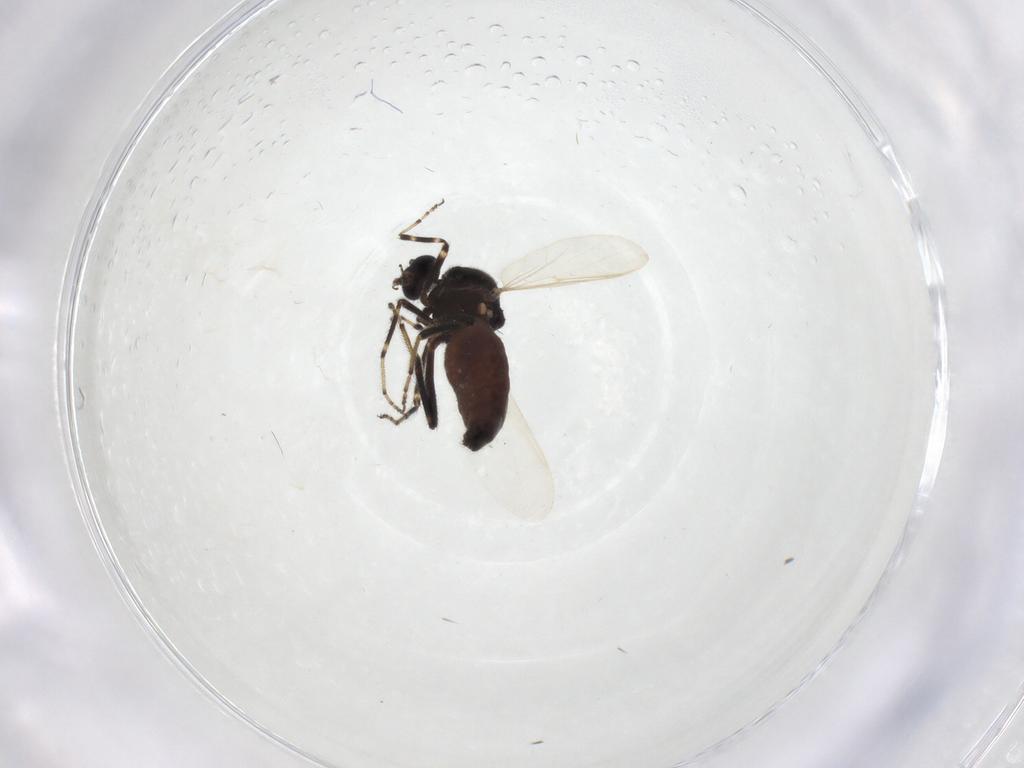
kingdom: Animalia
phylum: Arthropoda
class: Insecta
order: Diptera
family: Ceratopogonidae
